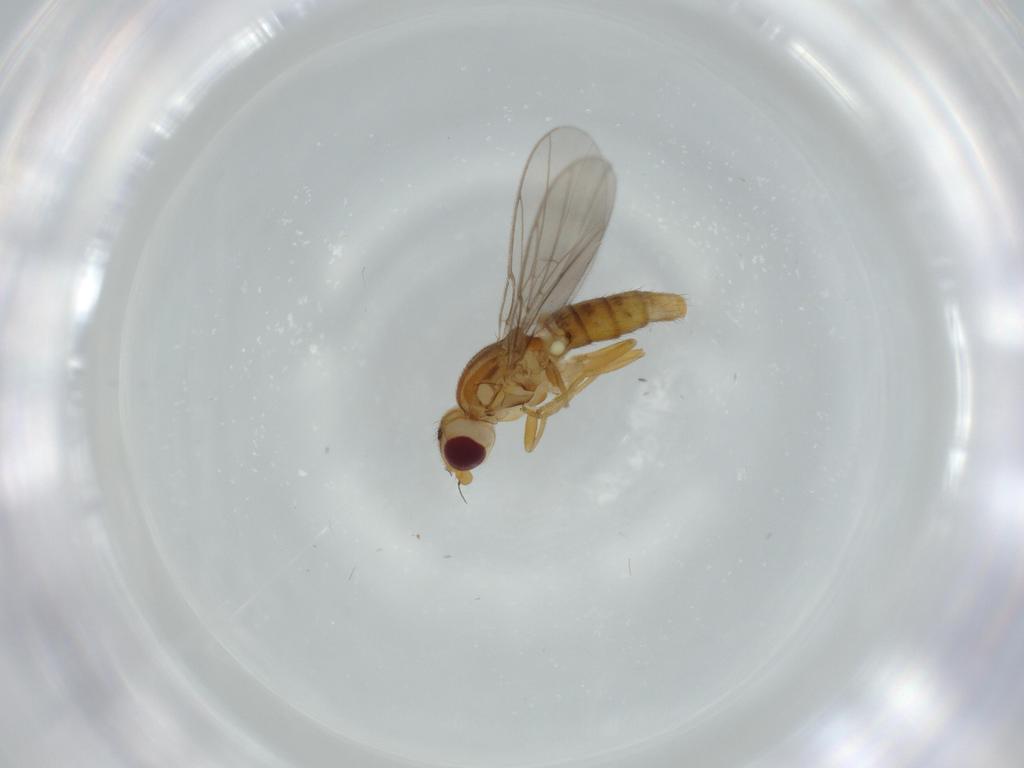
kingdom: Animalia
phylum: Arthropoda
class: Insecta
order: Diptera
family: Chloropidae
